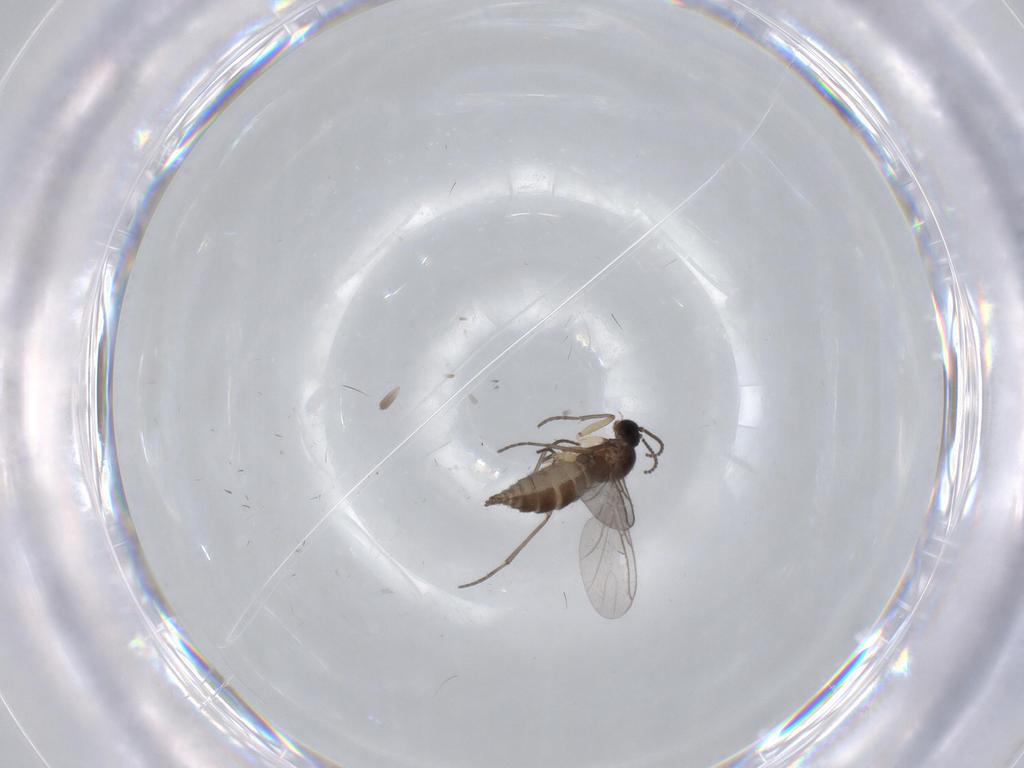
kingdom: Animalia
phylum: Arthropoda
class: Insecta
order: Diptera
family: Sciaridae
